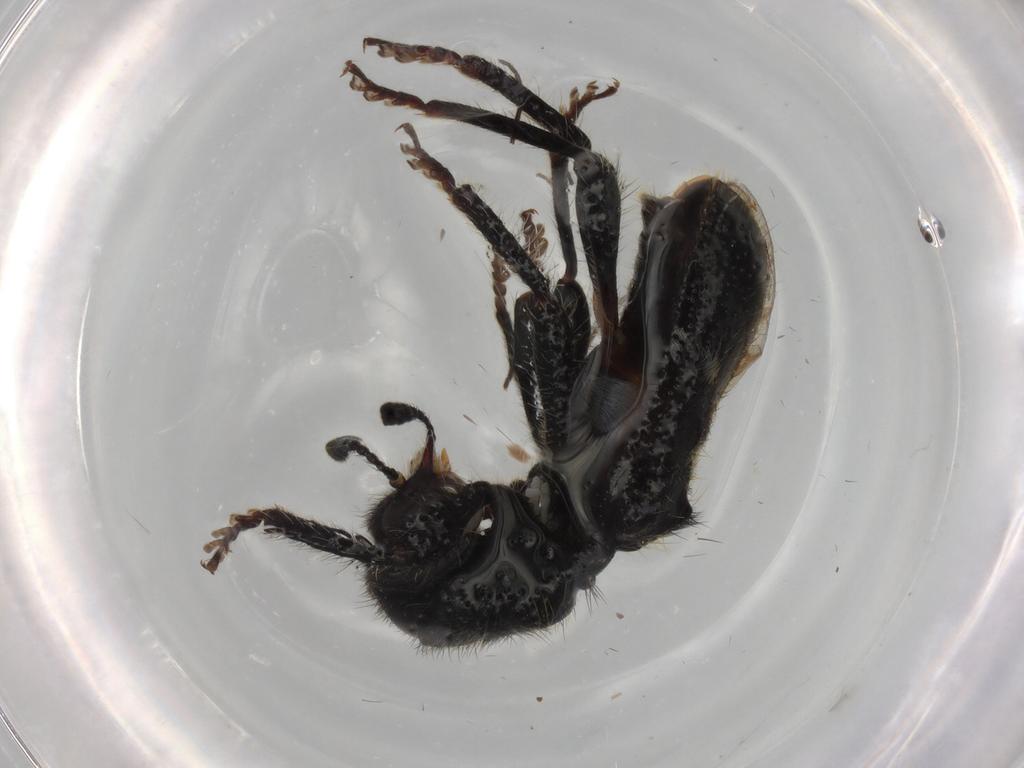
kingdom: Animalia
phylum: Arthropoda
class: Insecta
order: Diptera
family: Sciaridae
